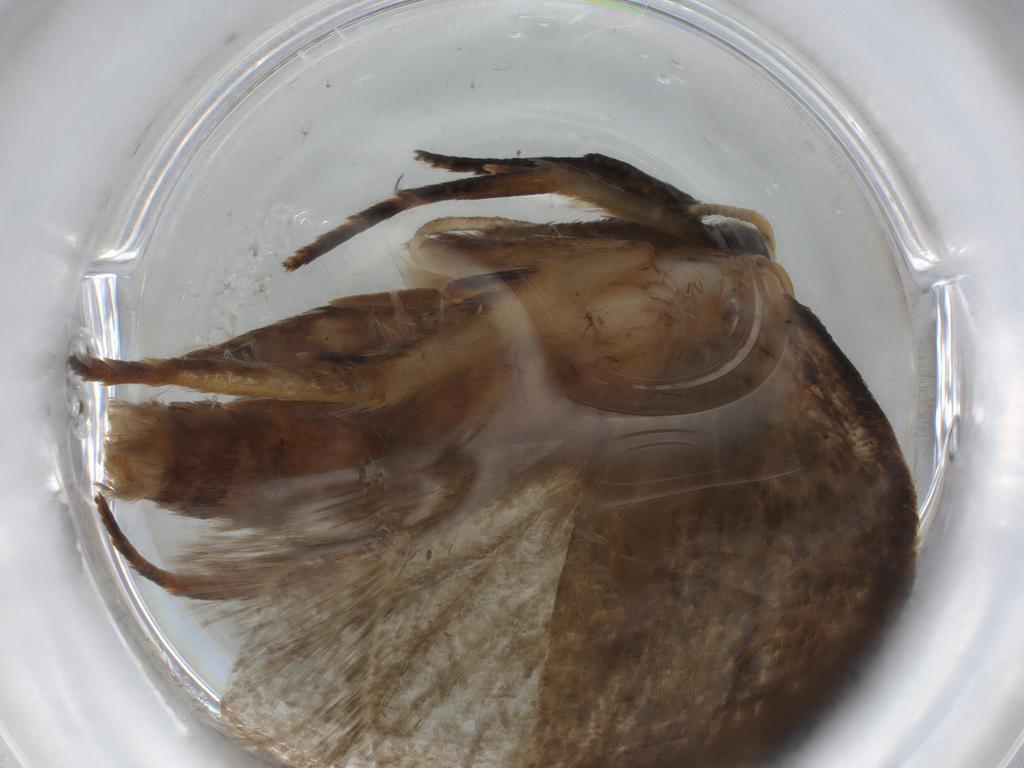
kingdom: Animalia
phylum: Arthropoda
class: Insecta
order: Lepidoptera
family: Oecophoridae
